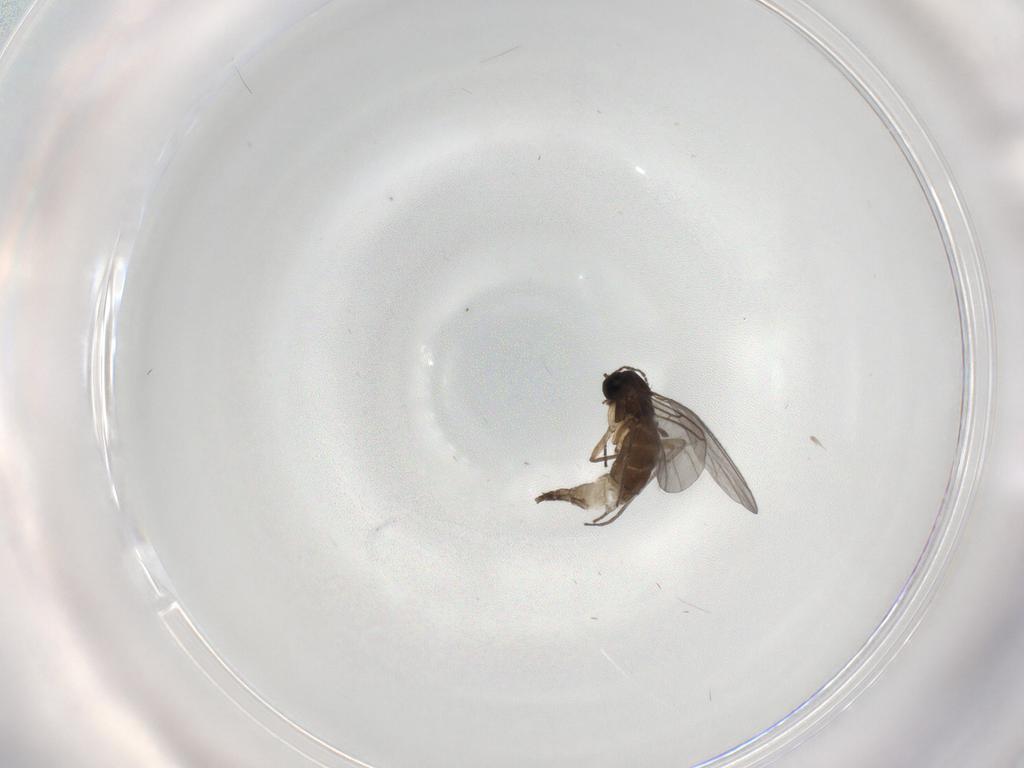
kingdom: Animalia
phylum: Arthropoda
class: Insecta
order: Diptera
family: Sciaridae
